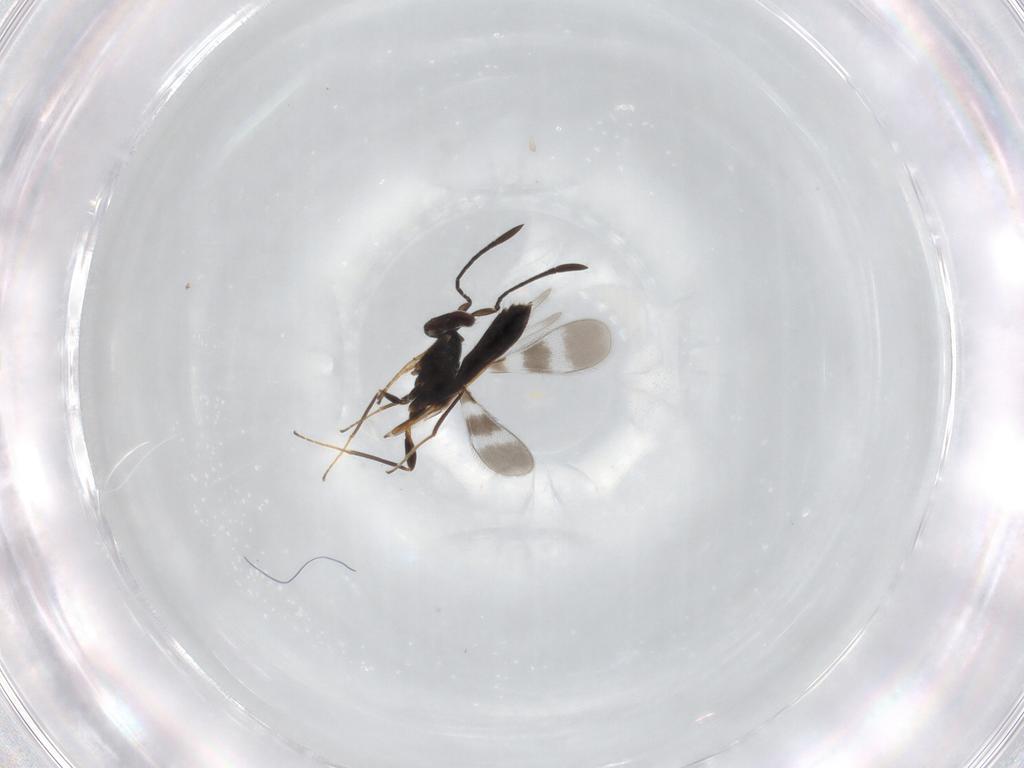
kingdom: Animalia
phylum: Arthropoda
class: Insecta
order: Hymenoptera
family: Mymaridae
